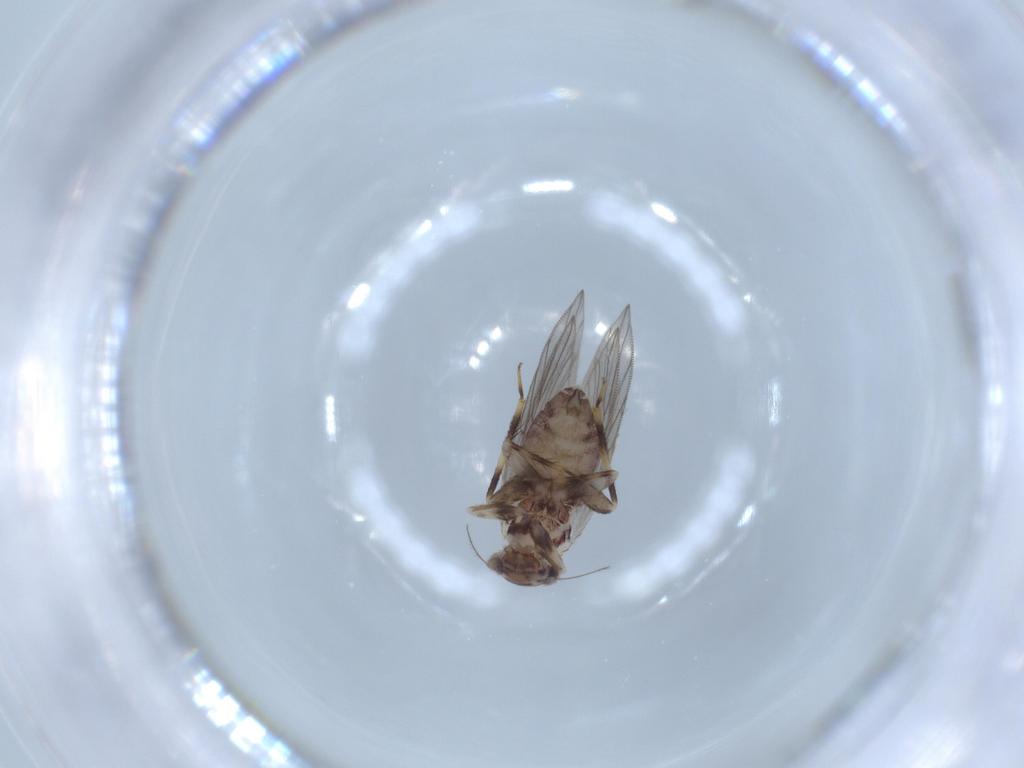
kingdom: Animalia
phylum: Arthropoda
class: Insecta
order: Psocodea
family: Lepidopsocidae
